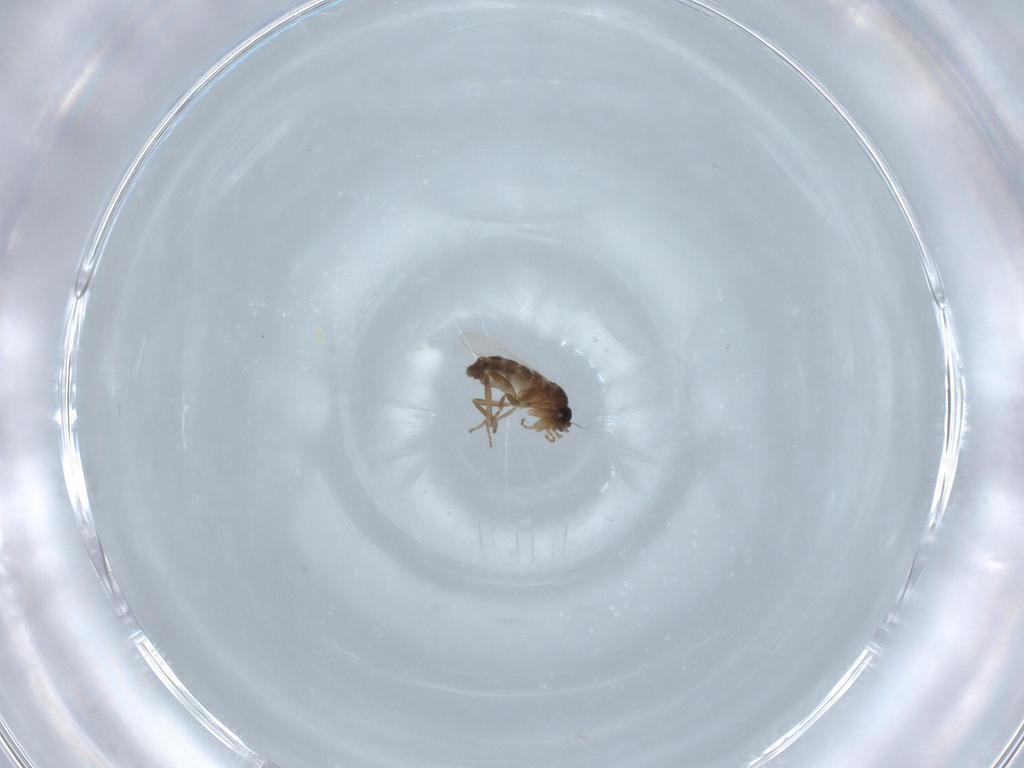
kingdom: Animalia
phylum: Arthropoda
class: Insecta
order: Diptera
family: Phoridae
